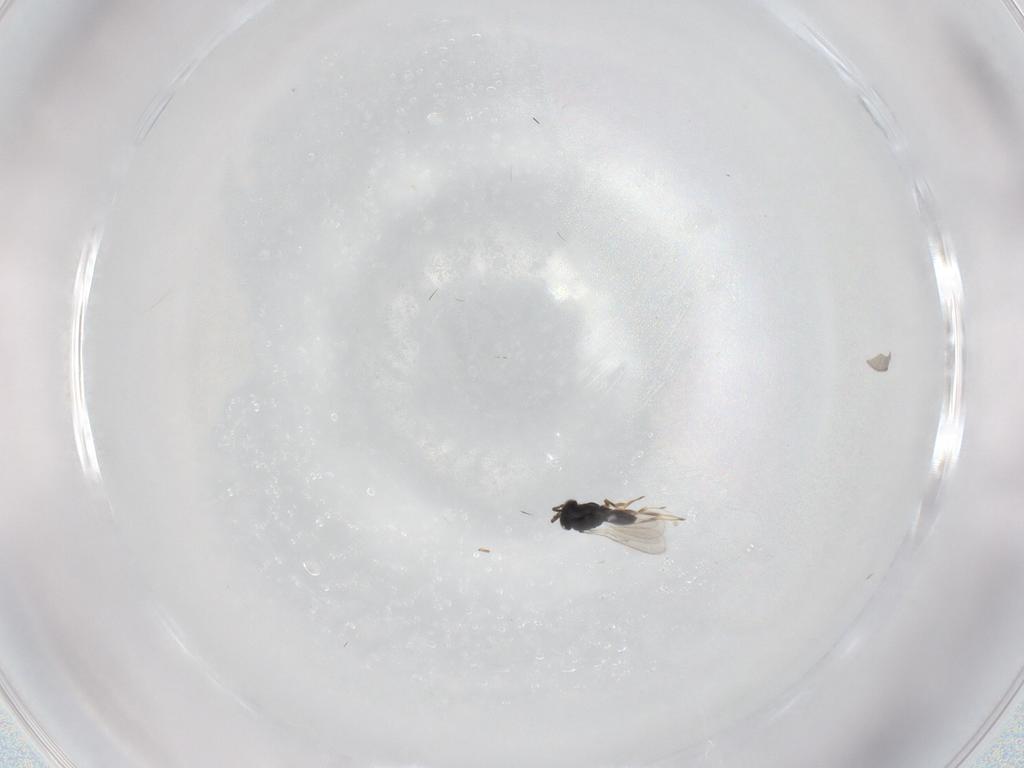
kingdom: Animalia
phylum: Arthropoda
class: Insecta
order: Hymenoptera
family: Scelionidae
